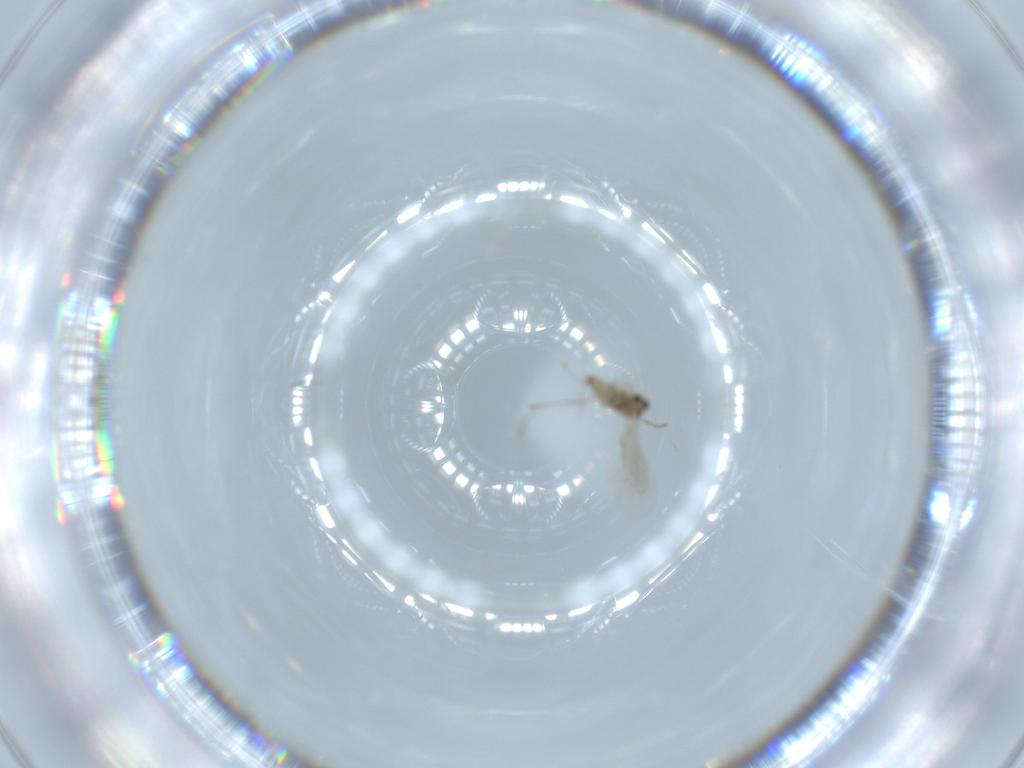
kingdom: Animalia
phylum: Arthropoda
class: Insecta
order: Diptera
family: Cecidomyiidae
